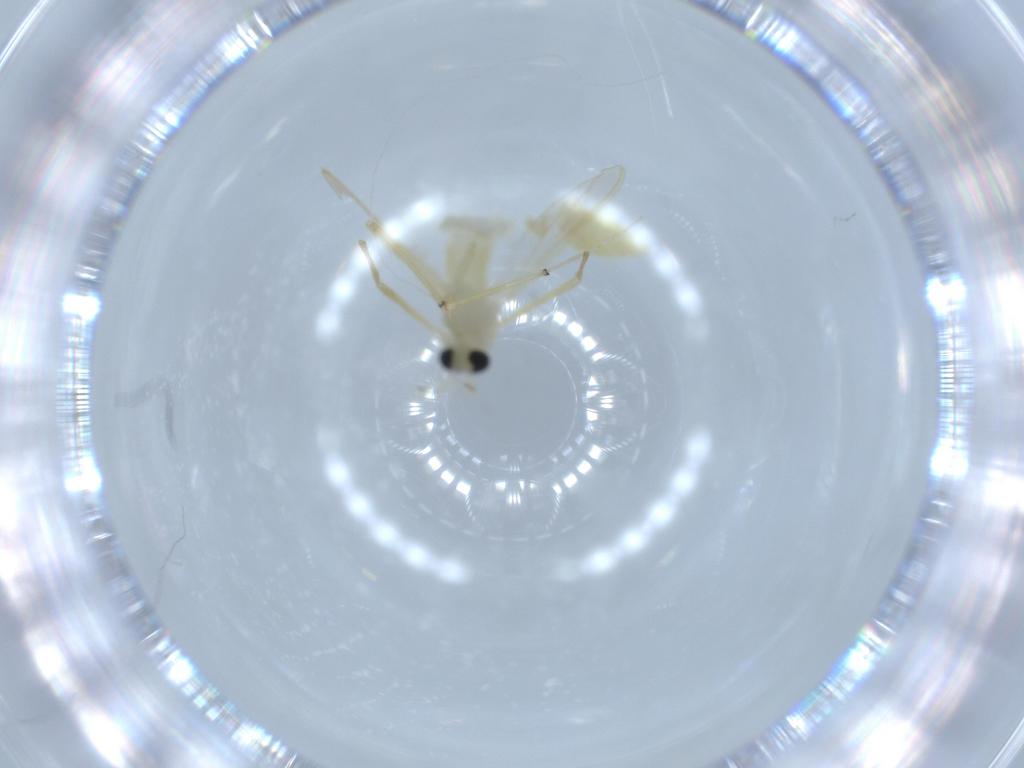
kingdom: Animalia
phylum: Arthropoda
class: Insecta
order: Diptera
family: Chironomidae
